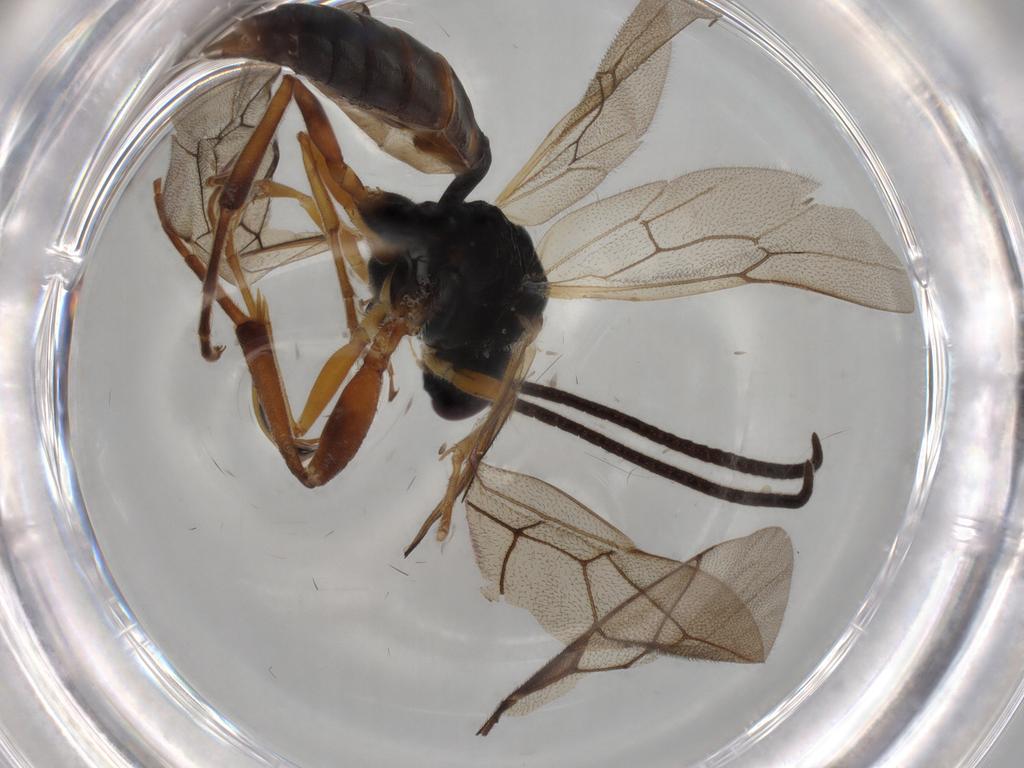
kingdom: Animalia
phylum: Arthropoda
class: Insecta
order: Hymenoptera
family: Ichneumonidae
